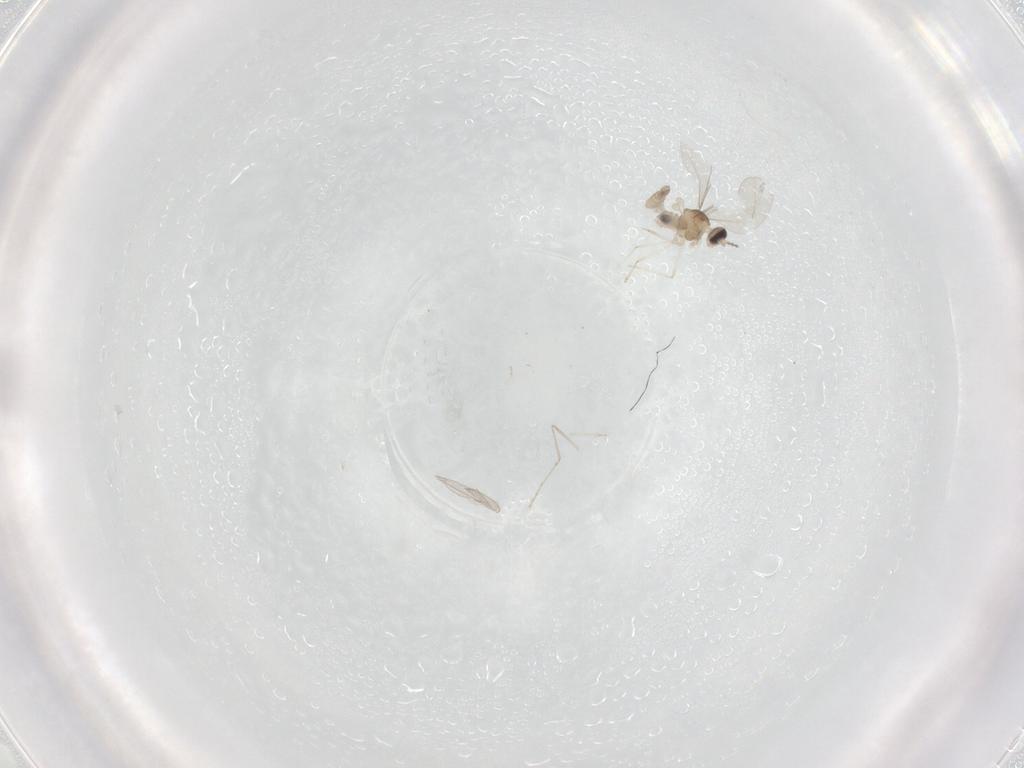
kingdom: Animalia
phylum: Arthropoda
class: Insecta
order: Diptera
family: Cecidomyiidae
